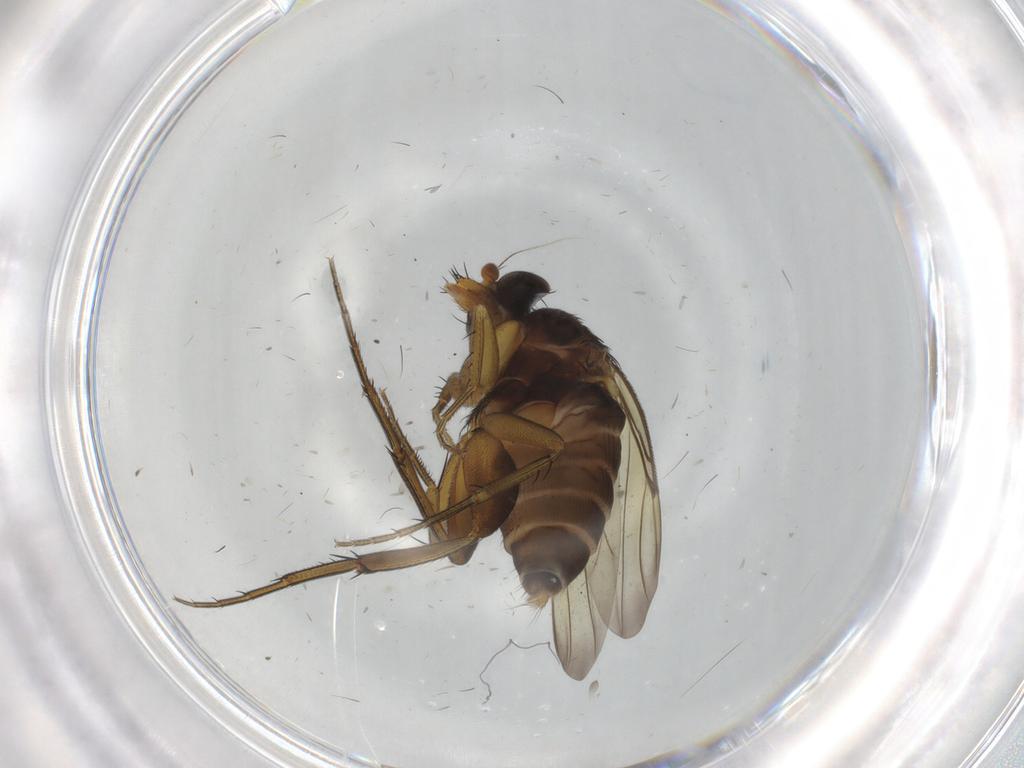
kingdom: Animalia
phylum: Arthropoda
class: Insecta
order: Diptera
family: Phoridae
